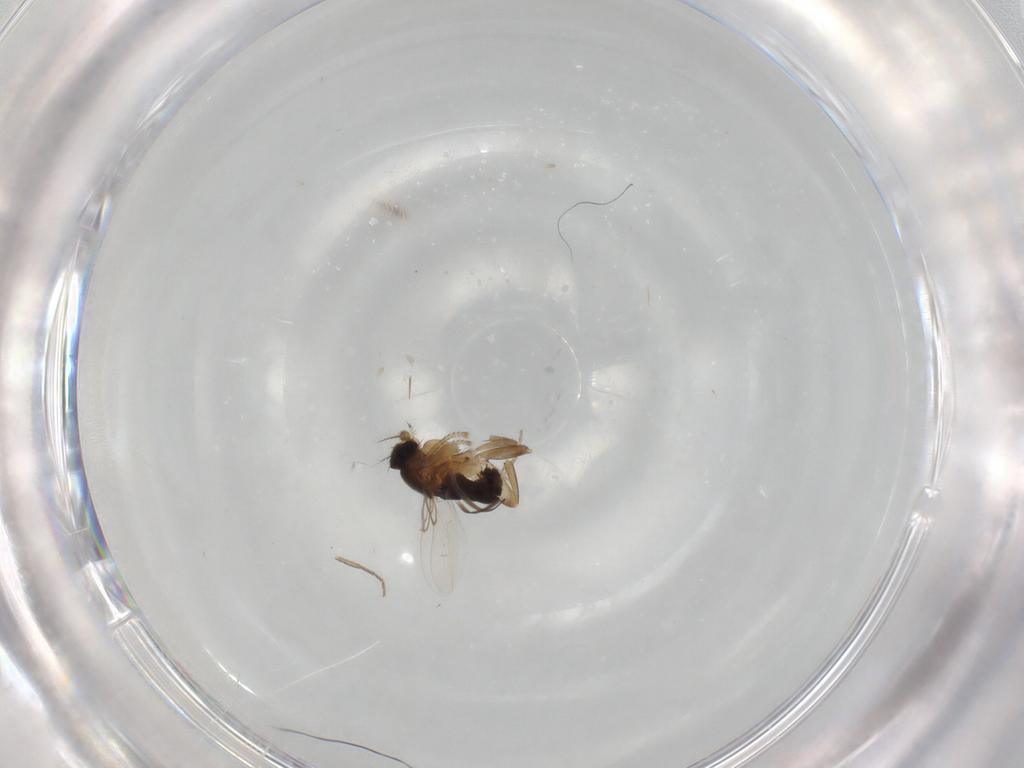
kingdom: Animalia
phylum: Arthropoda
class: Insecta
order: Diptera
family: Phoridae
